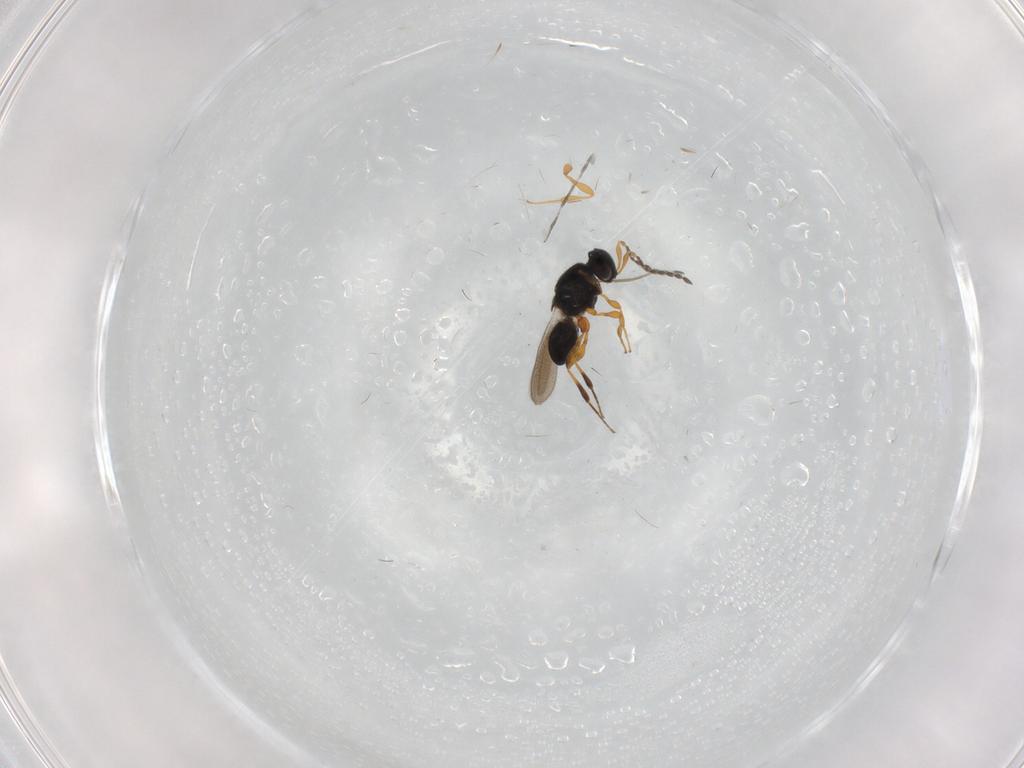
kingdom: Animalia
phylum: Arthropoda
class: Insecta
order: Hymenoptera
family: Platygastridae
